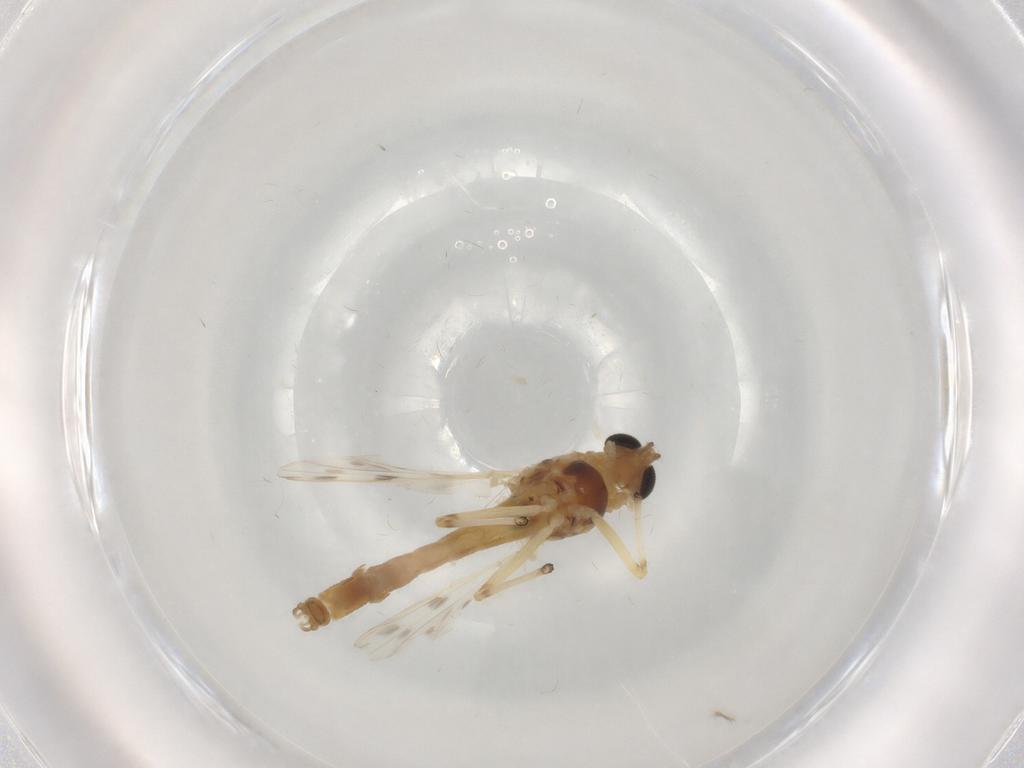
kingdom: Animalia
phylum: Arthropoda
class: Insecta
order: Diptera
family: Chironomidae
